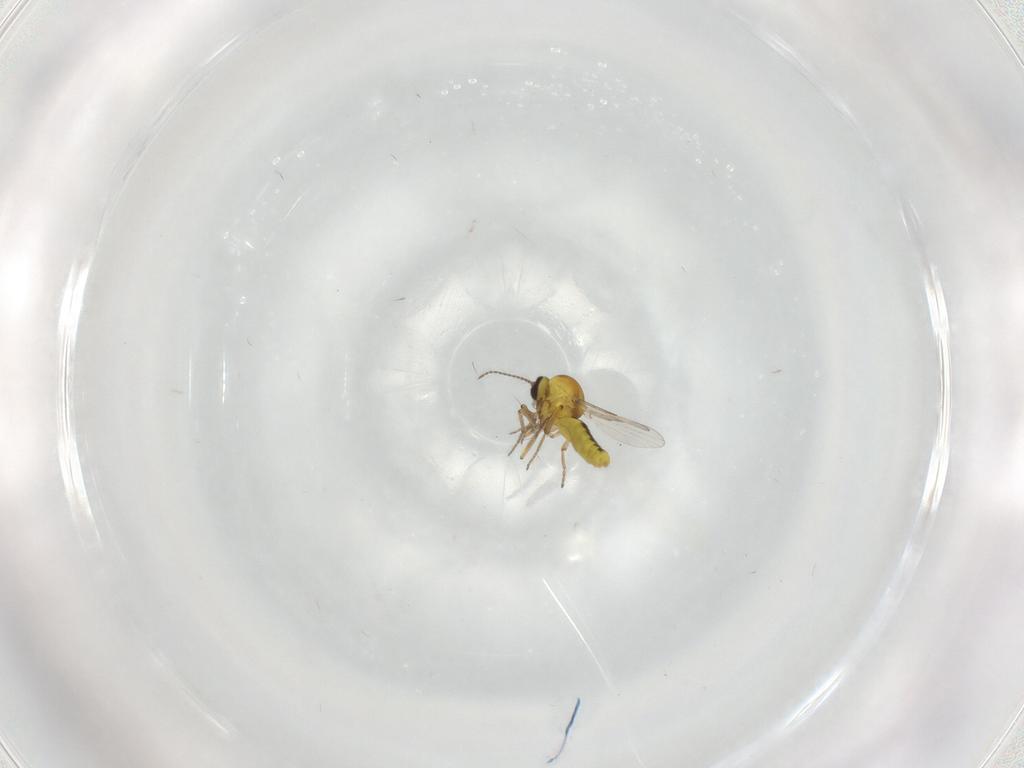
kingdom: Animalia
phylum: Arthropoda
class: Insecta
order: Diptera
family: Ceratopogonidae
